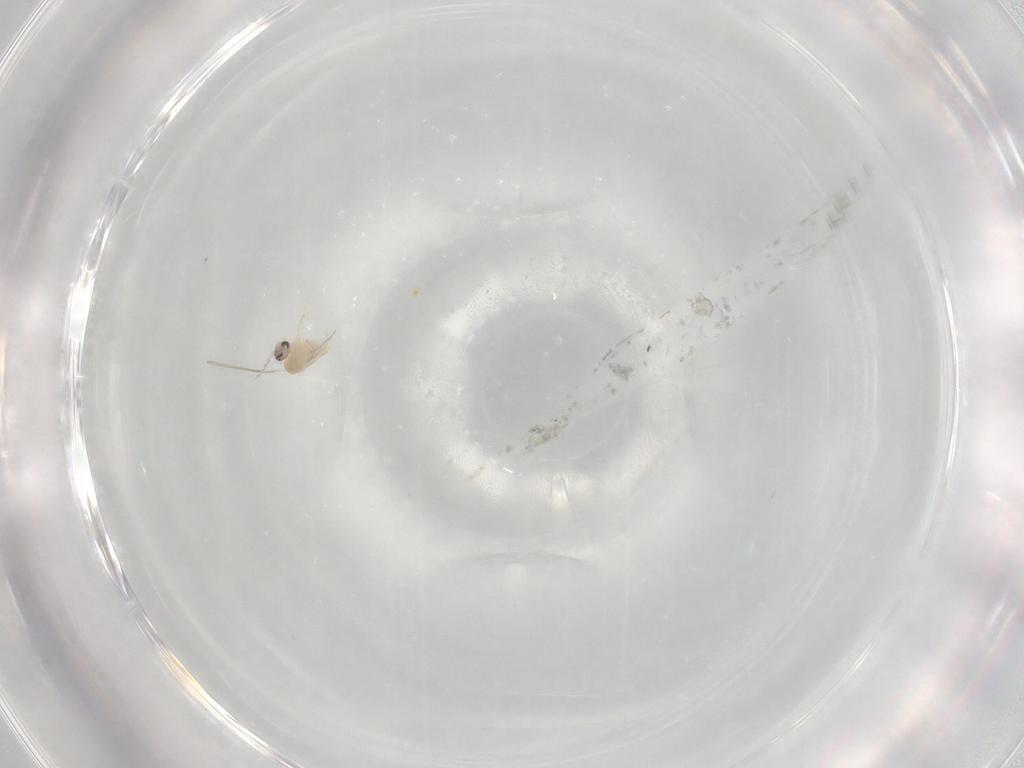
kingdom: Animalia
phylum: Arthropoda
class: Insecta
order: Diptera
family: Cecidomyiidae
